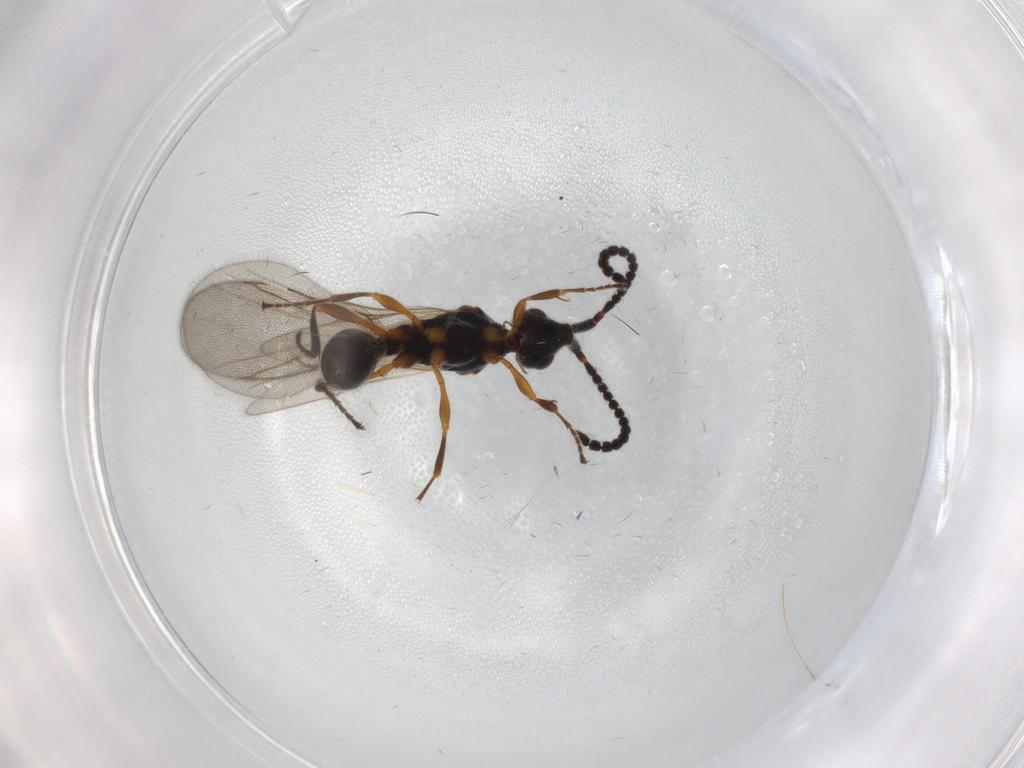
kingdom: Animalia
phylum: Arthropoda
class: Insecta
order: Hymenoptera
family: Diapriidae
